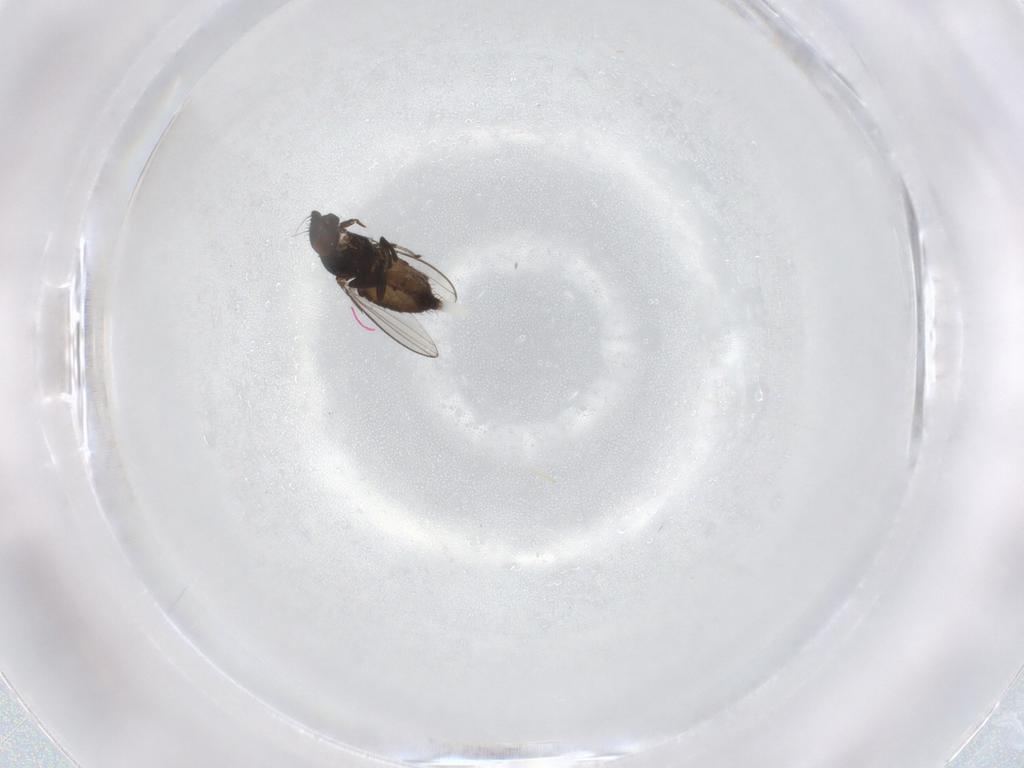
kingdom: Animalia
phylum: Arthropoda
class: Insecta
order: Diptera
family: Milichiidae
